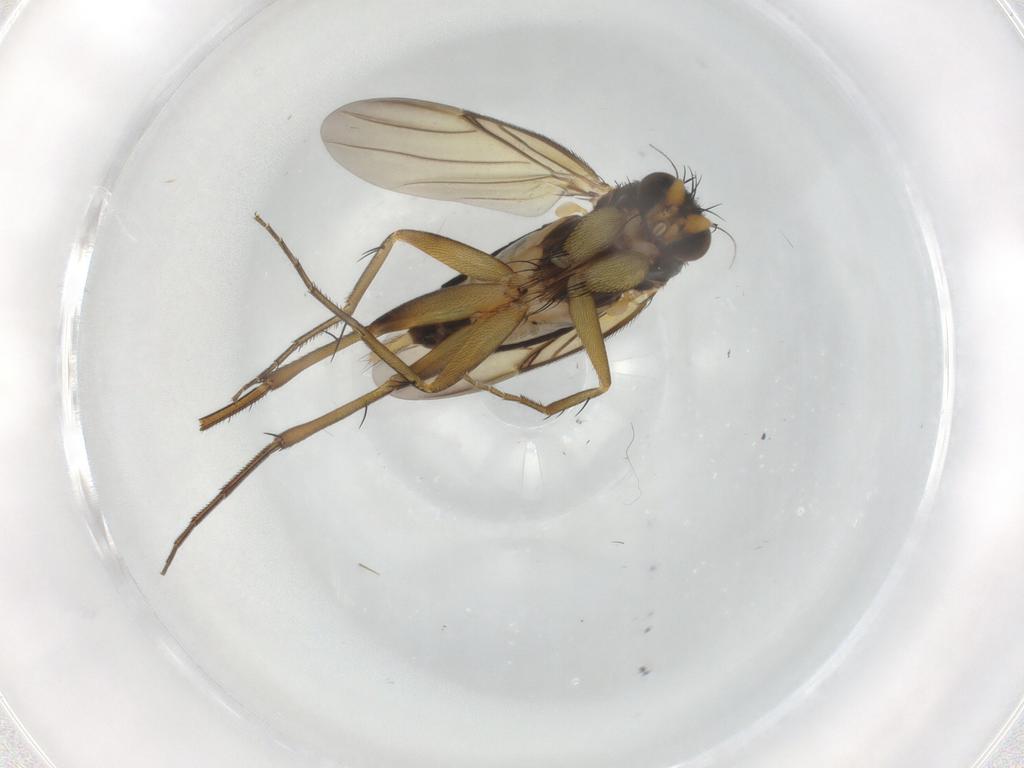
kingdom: Animalia
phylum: Arthropoda
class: Insecta
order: Diptera
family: Phoridae
